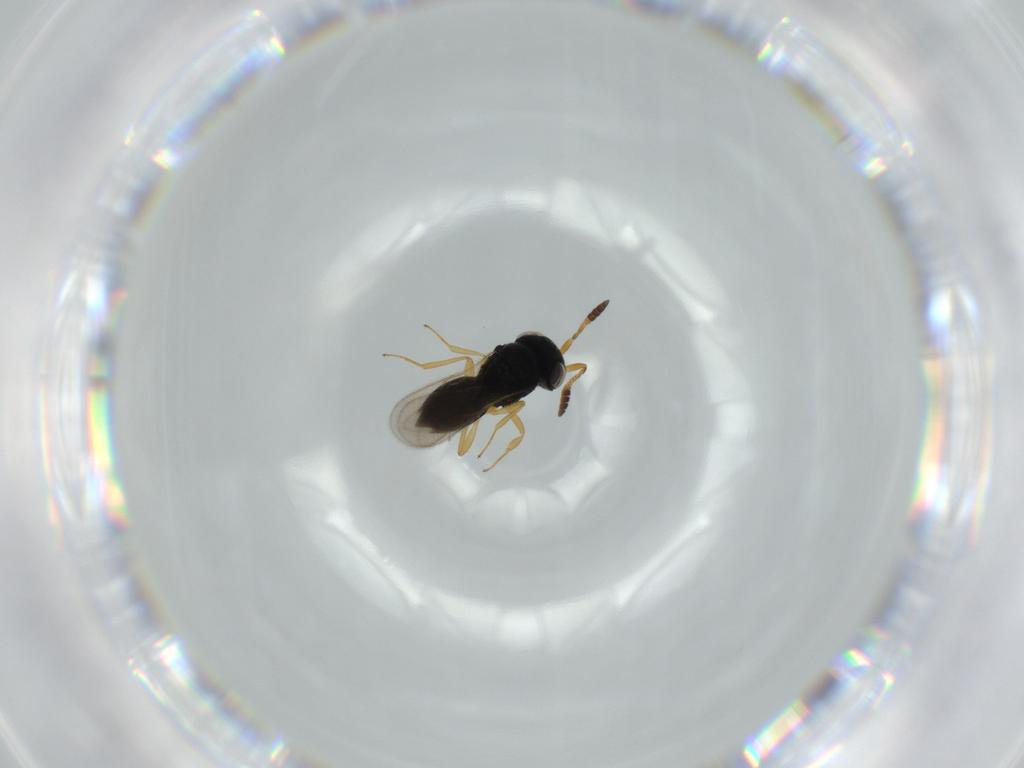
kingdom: Animalia
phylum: Arthropoda
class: Insecta
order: Hymenoptera
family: Scelionidae
